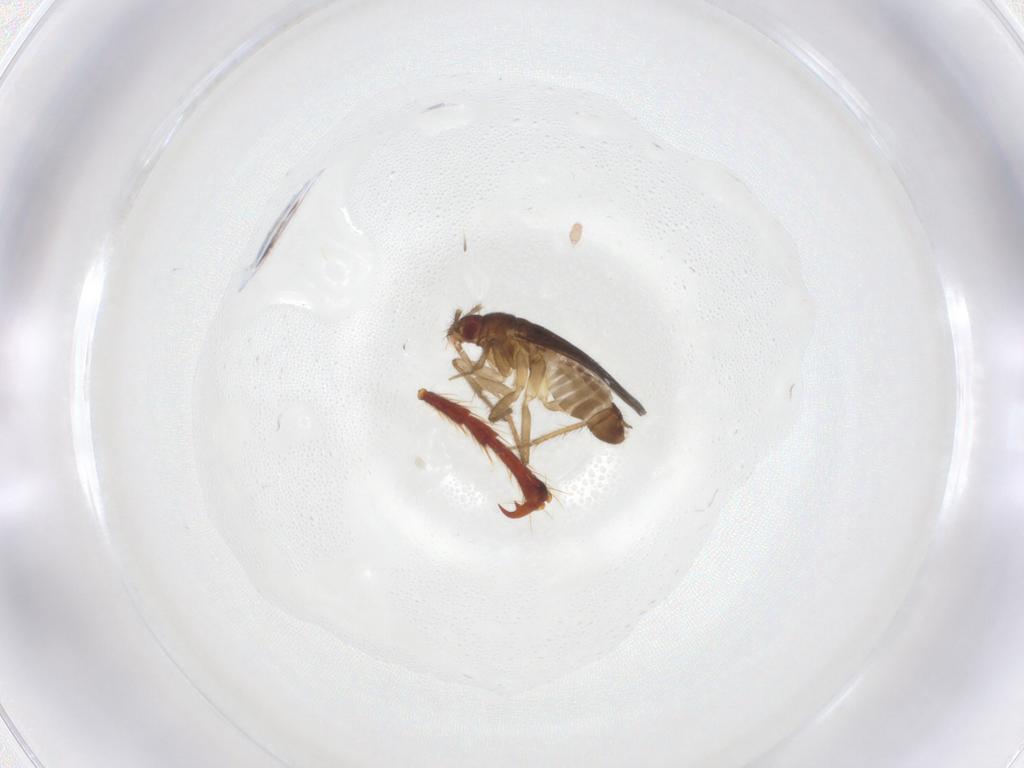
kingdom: Animalia
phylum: Arthropoda
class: Insecta
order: Hemiptera
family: Ceratocombidae
